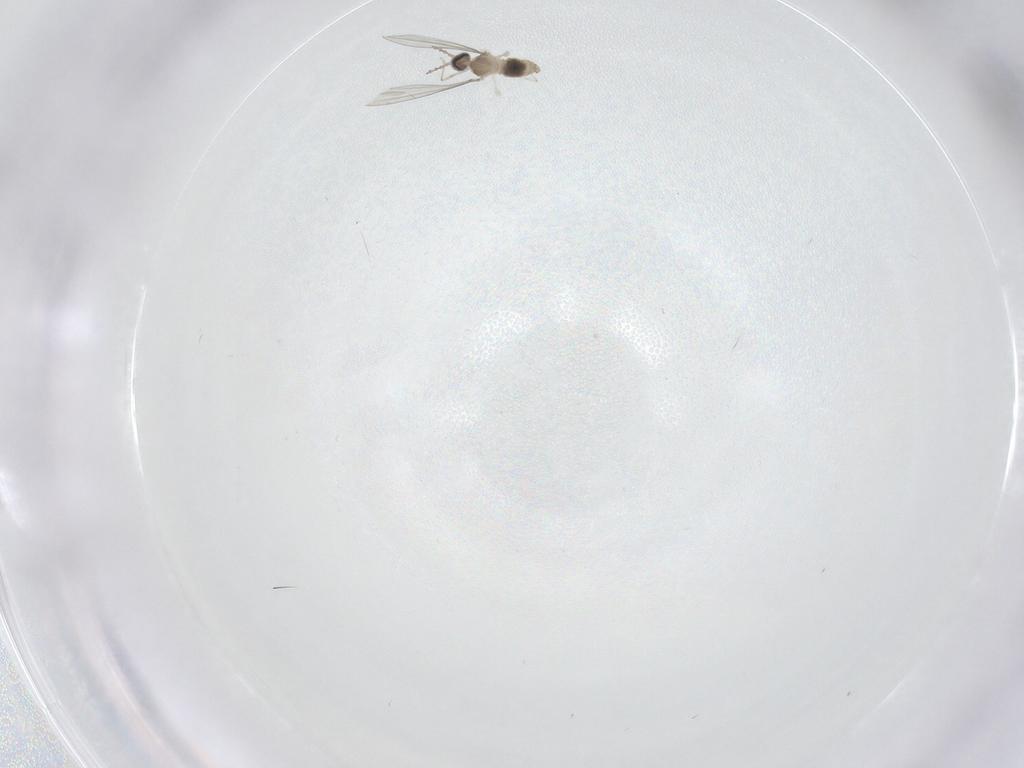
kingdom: Animalia
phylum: Arthropoda
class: Insecta
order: Diptera
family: Cecidomyiidae
